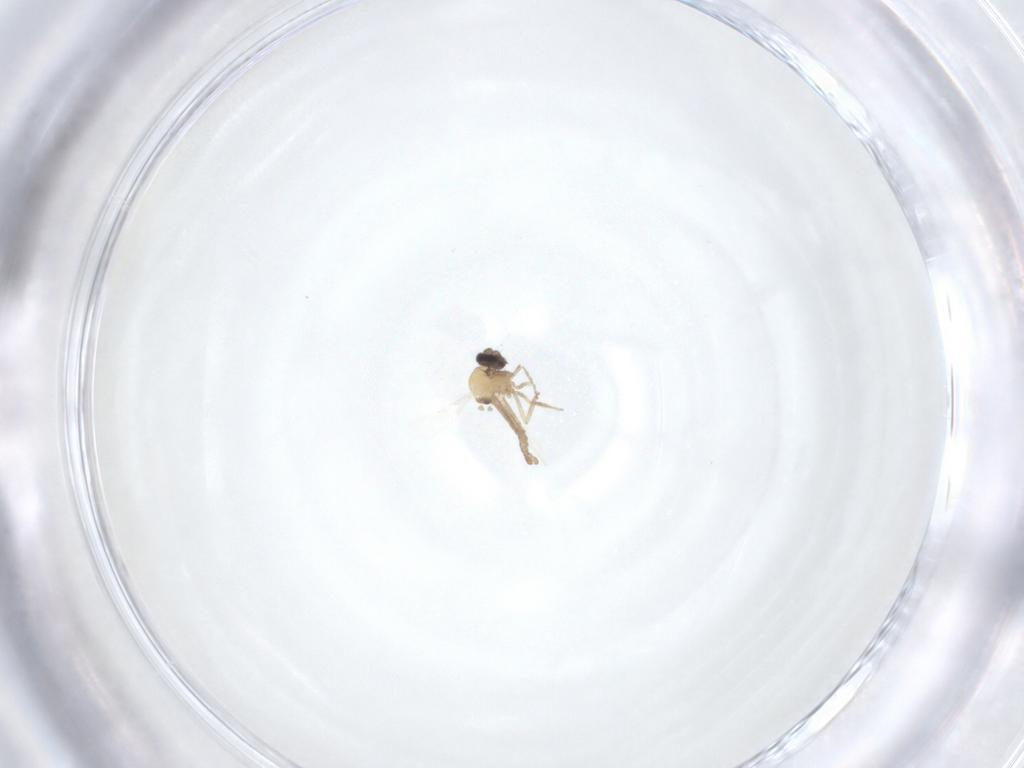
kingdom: Animalia
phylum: Arthropoda
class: Insecta
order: Diptera
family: Ceratopogonidae
